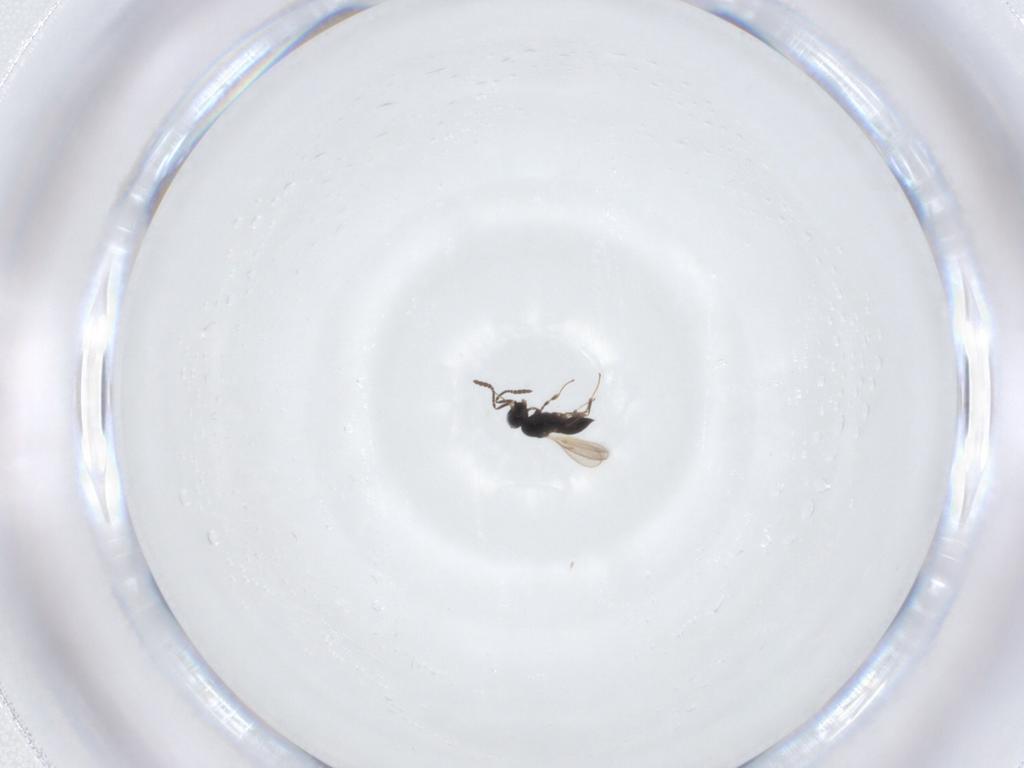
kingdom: Animalia
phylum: Arthropoda
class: Insecta
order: Hymenoptera
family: Scelionidae
